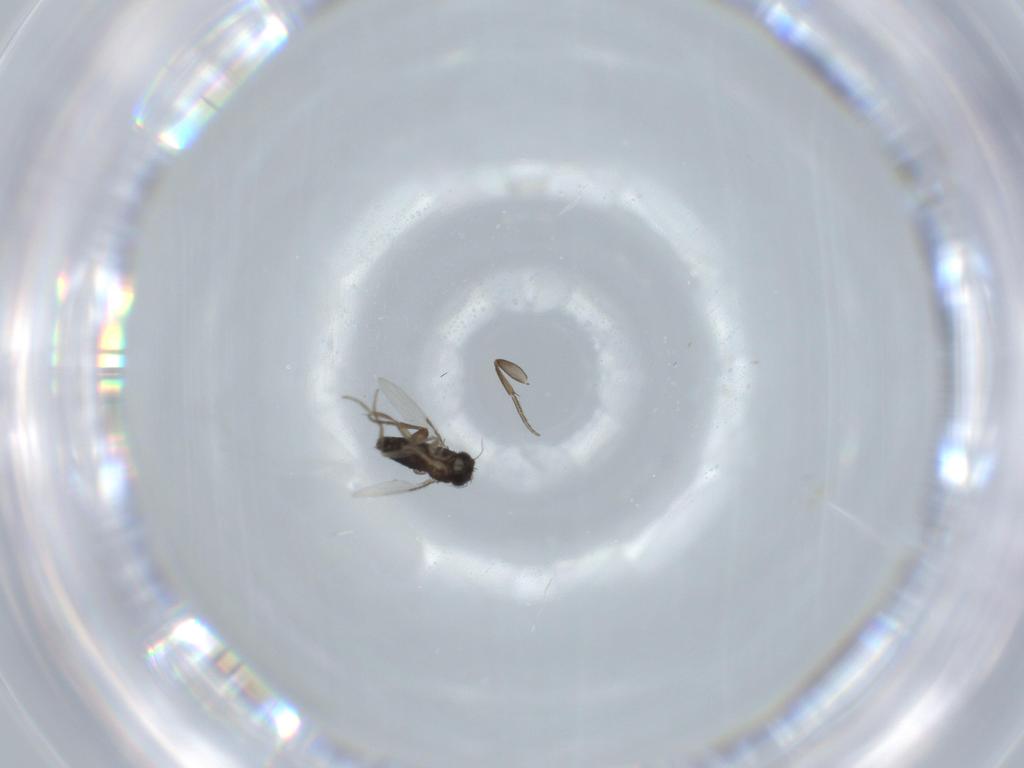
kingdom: Animalia
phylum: Arthropoda
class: Insecta
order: Diptera
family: Phoridae
